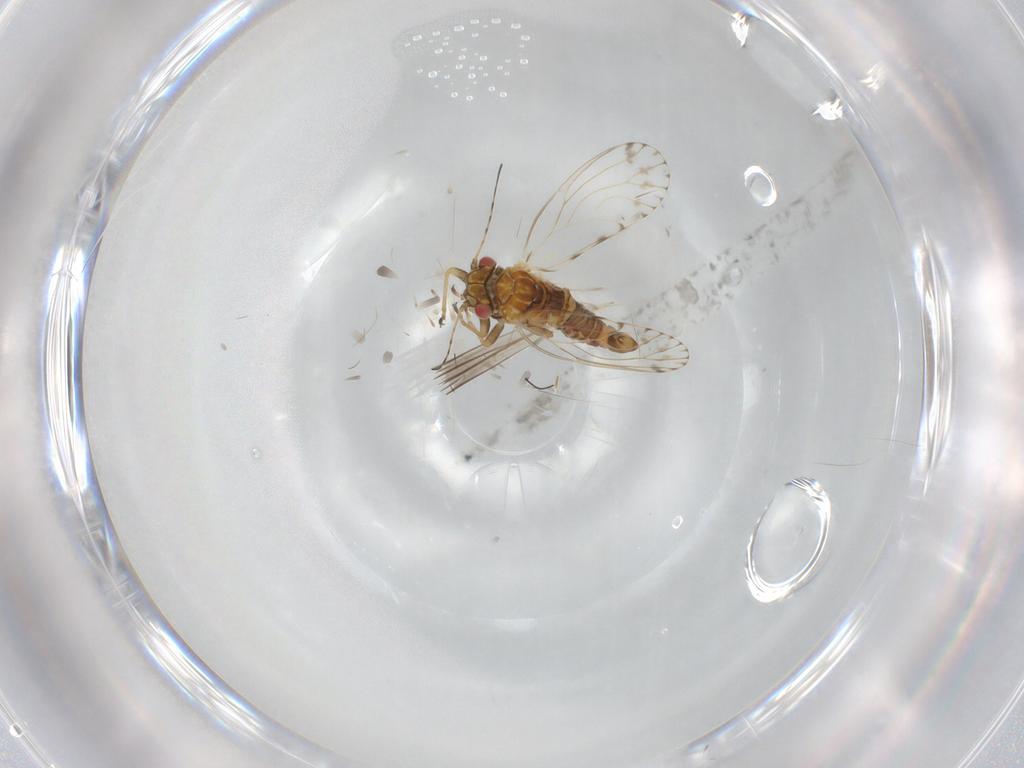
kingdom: Animalia
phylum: Arthropoda
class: Insecta
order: Hemiptera
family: Psyllidae
